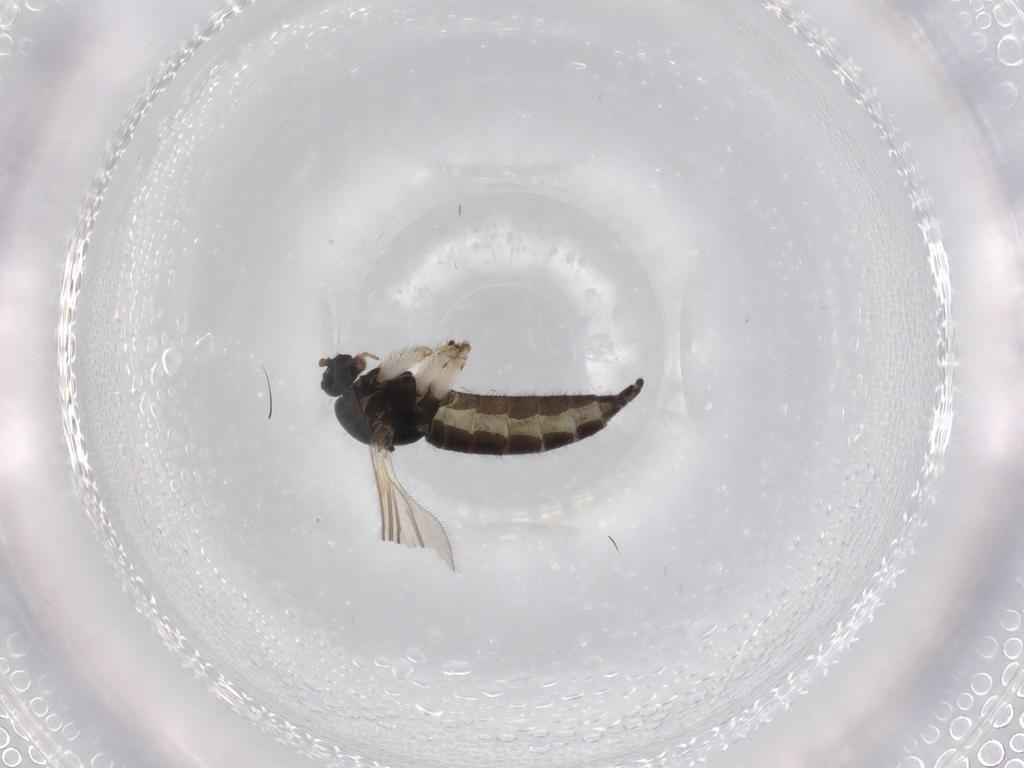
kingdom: Animalia
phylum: Arthropoda
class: Insecta
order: Diptera
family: Sciaridae
